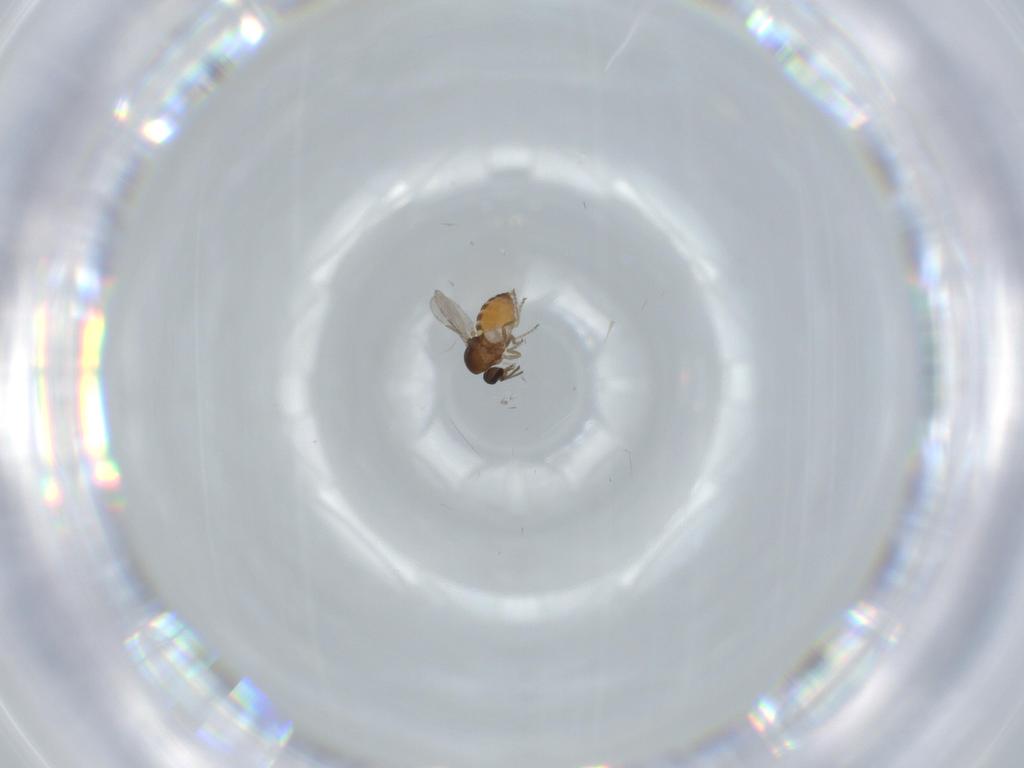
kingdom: Animalia
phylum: Arthropoda
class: Insecta
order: Diptera
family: Ceratopogonidae
